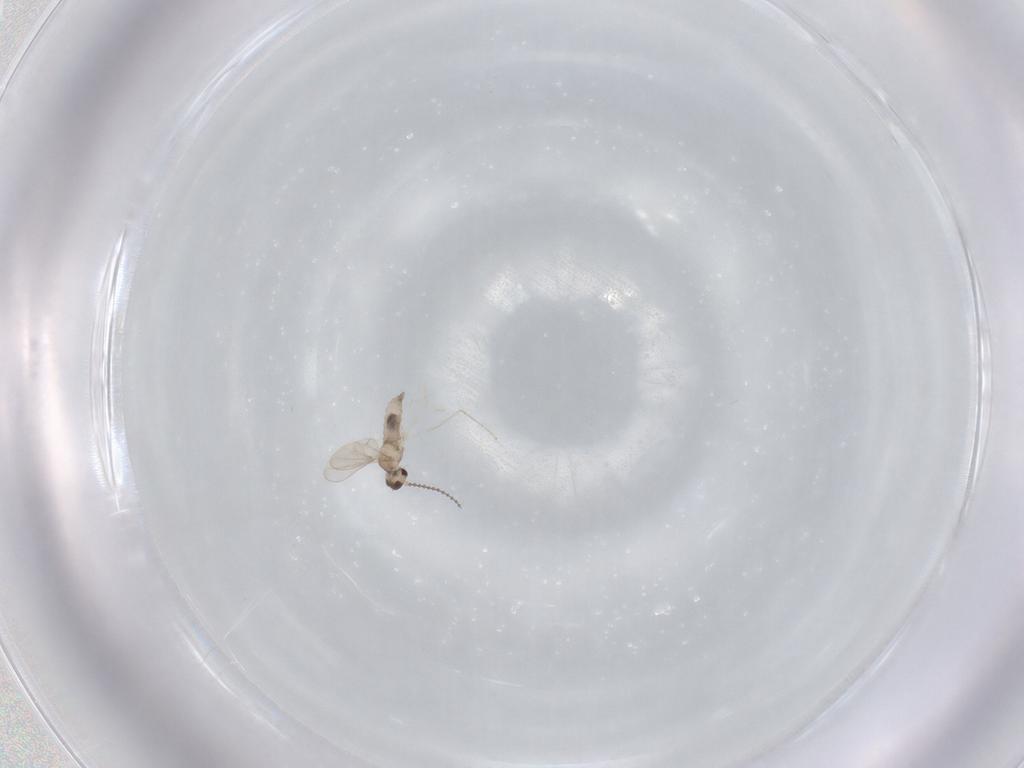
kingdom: Animalia
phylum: Arthropoda
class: Insecta
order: Diptera
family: Cecidomyiidae
